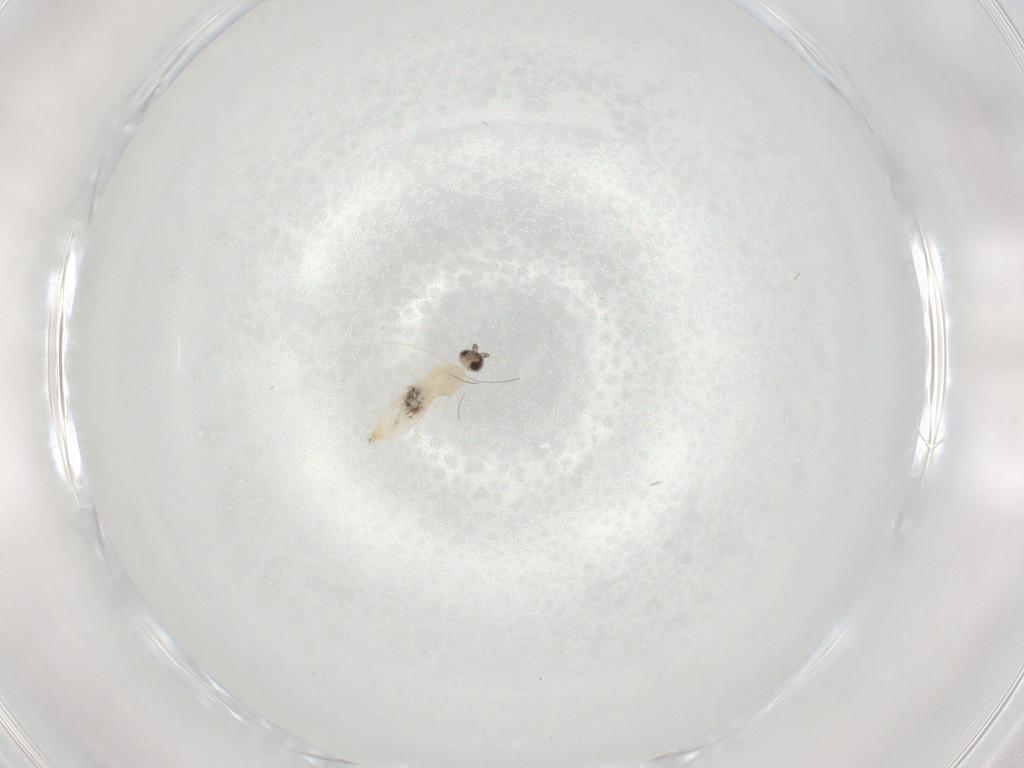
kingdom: Animalia
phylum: Arthropoda
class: Insecta
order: Diptera
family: Cecidomyiidae
